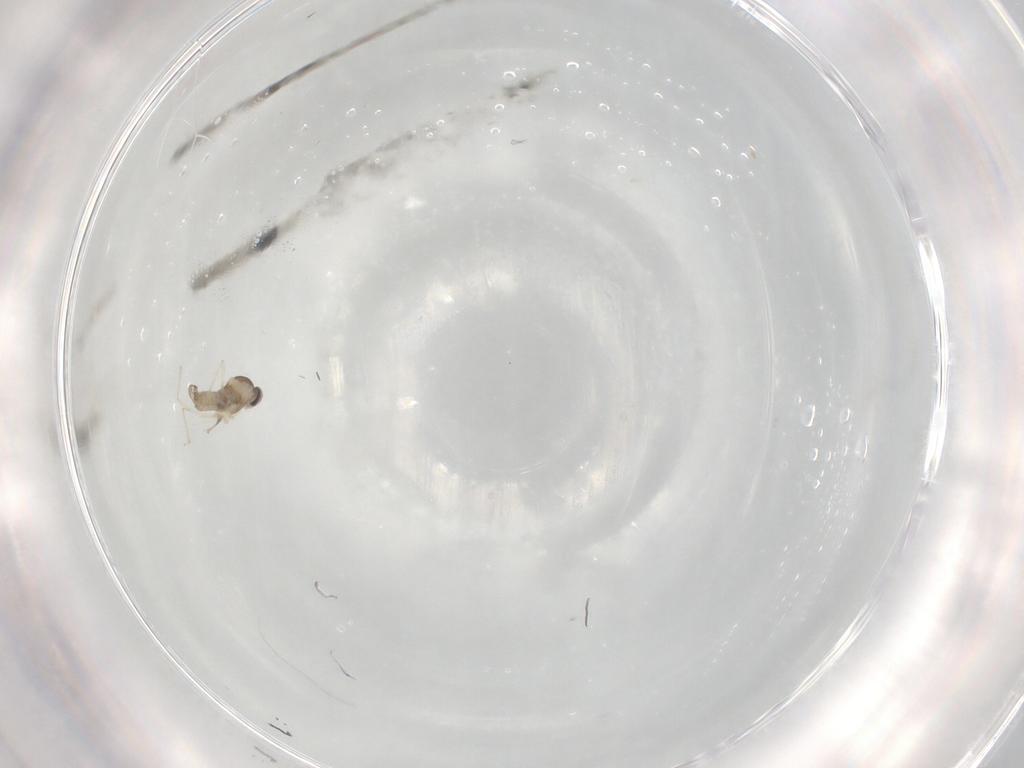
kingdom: Animalia
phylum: Arthropoda
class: Insecta
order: Diptera
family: Cecidomyiidae
